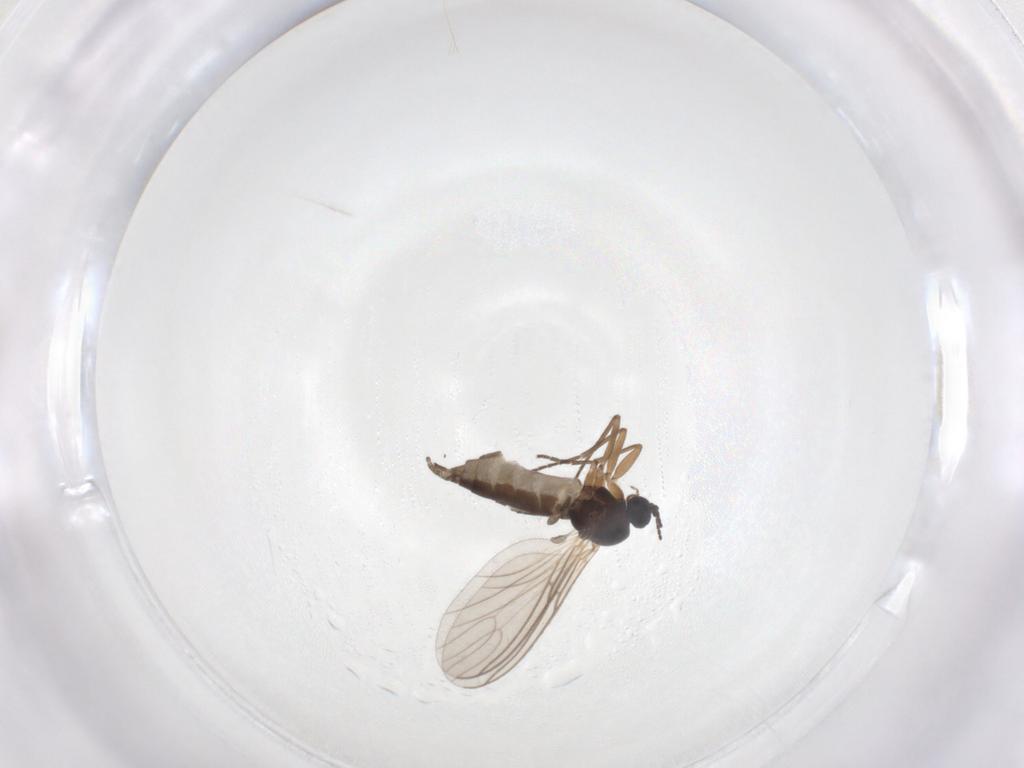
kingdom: Animalia
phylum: Arthropoda
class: Insecta
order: Diptera
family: Sciaridae
